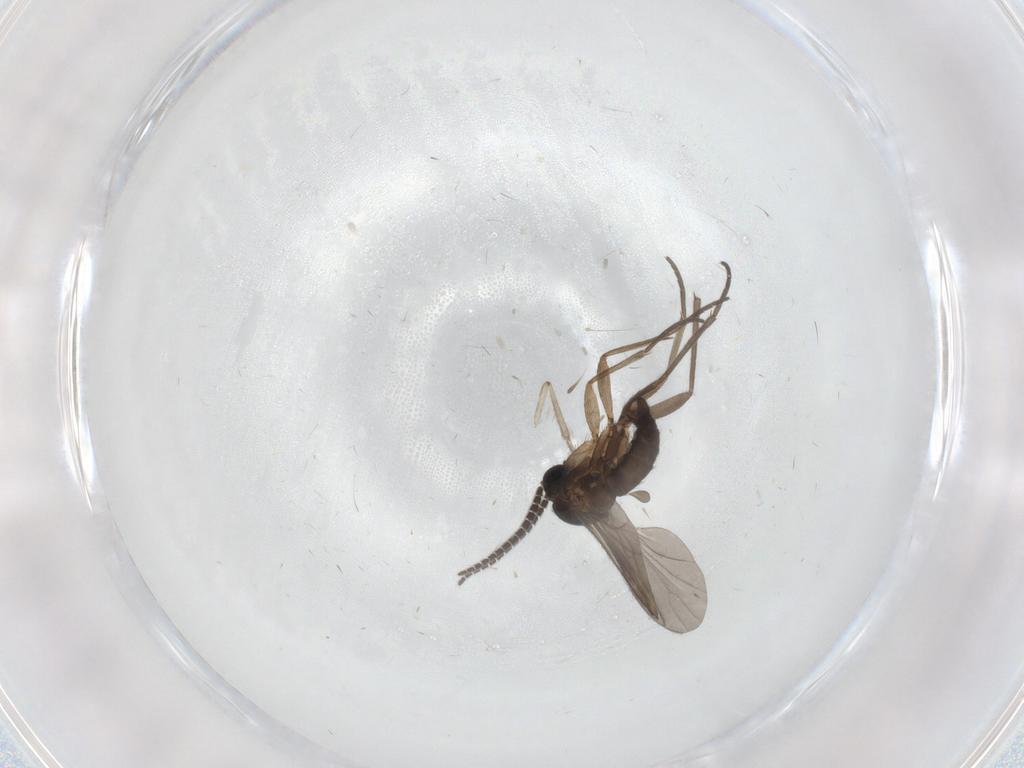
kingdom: Animalia
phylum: Arthropoda
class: Insecta
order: Diptera
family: Sciaridae
